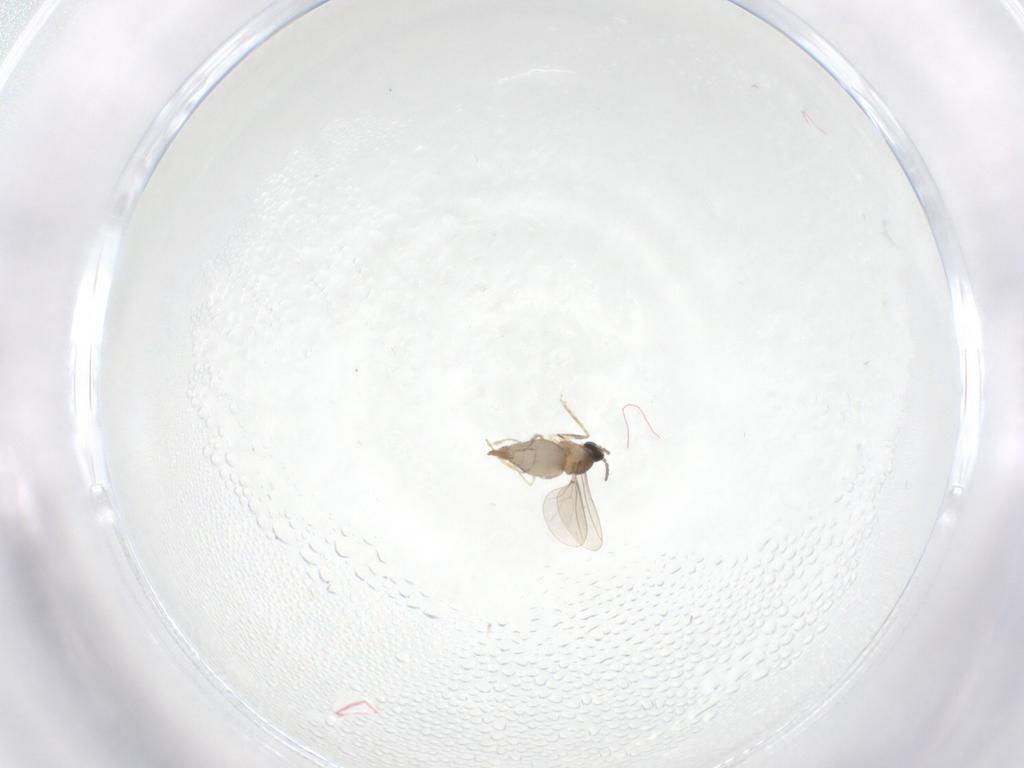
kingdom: Animalia
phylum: Arthropoda
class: Insecta
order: Diptera
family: Cecidomyiidae
